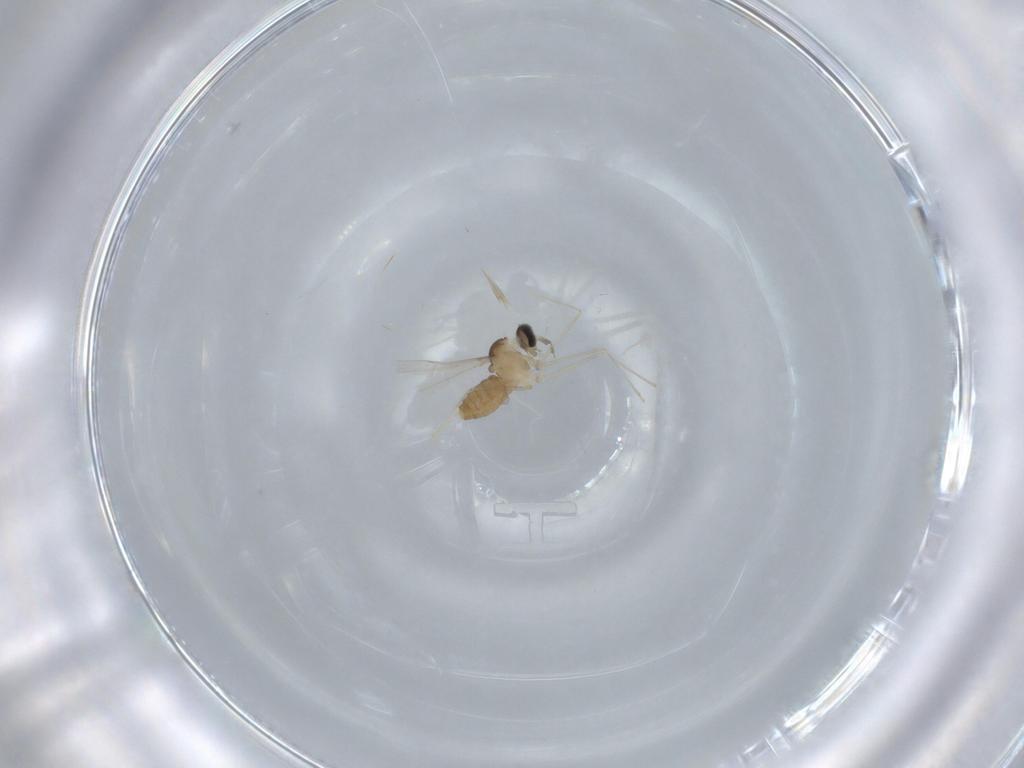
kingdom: Animalia
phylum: Arthropoda
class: Insecta
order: Diptera
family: Cecidomyiidae
